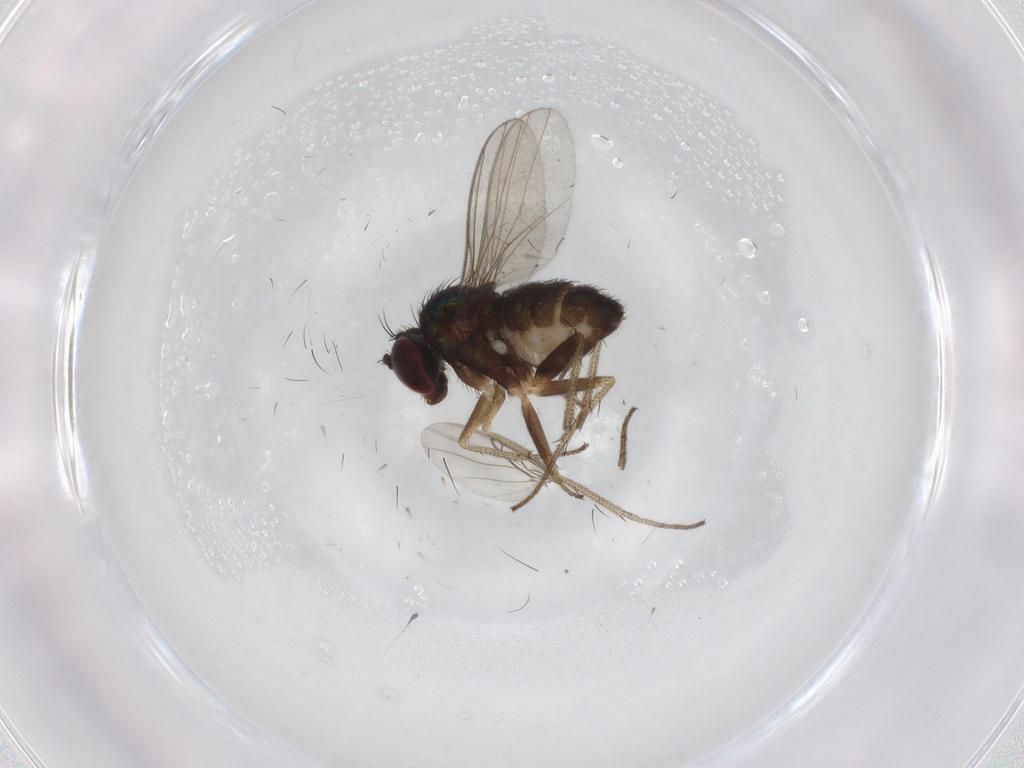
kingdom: Animalia
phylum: Arthropoda
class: Insecta
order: Diptera
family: Dolichopodidae
